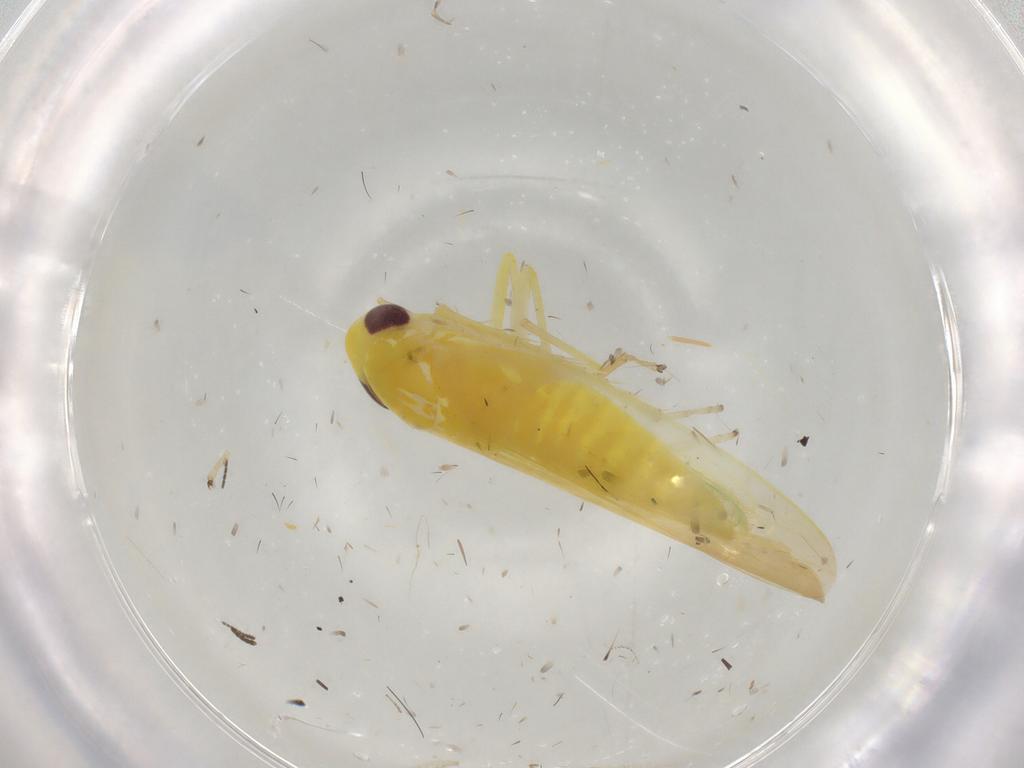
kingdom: Animalia
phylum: Arthropoda
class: Insecta
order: Hemiptera
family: Cicadellidae
